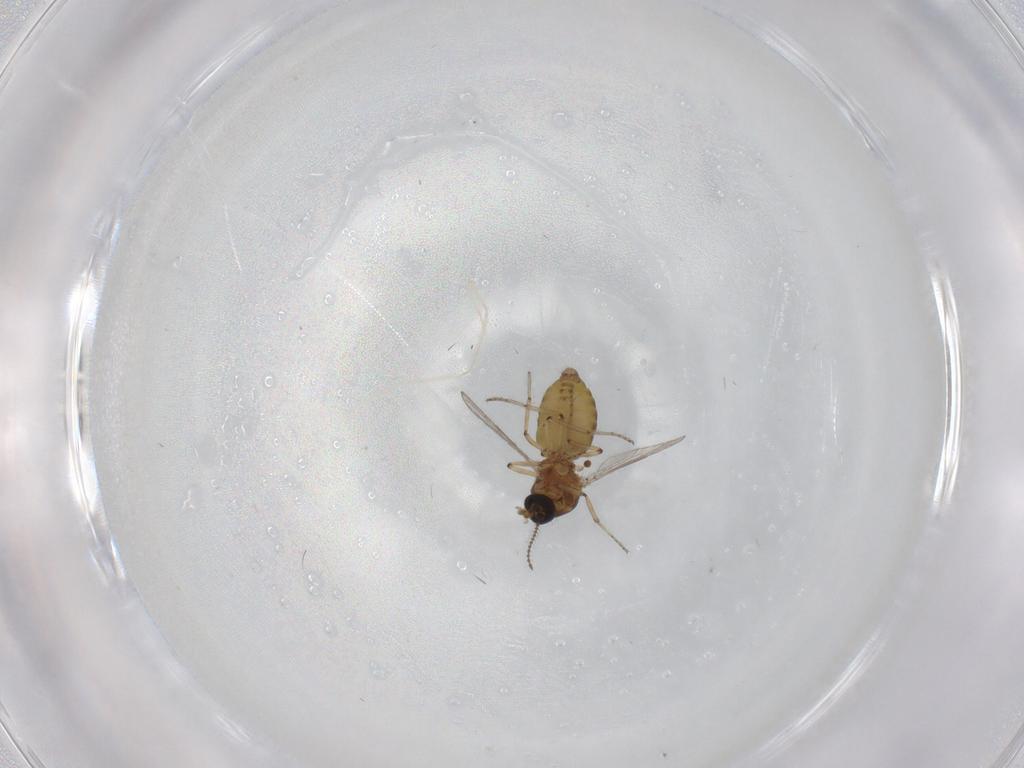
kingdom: Animalia
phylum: Arthropoda
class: Insecta
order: Diptera
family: Ceratopogonidae
